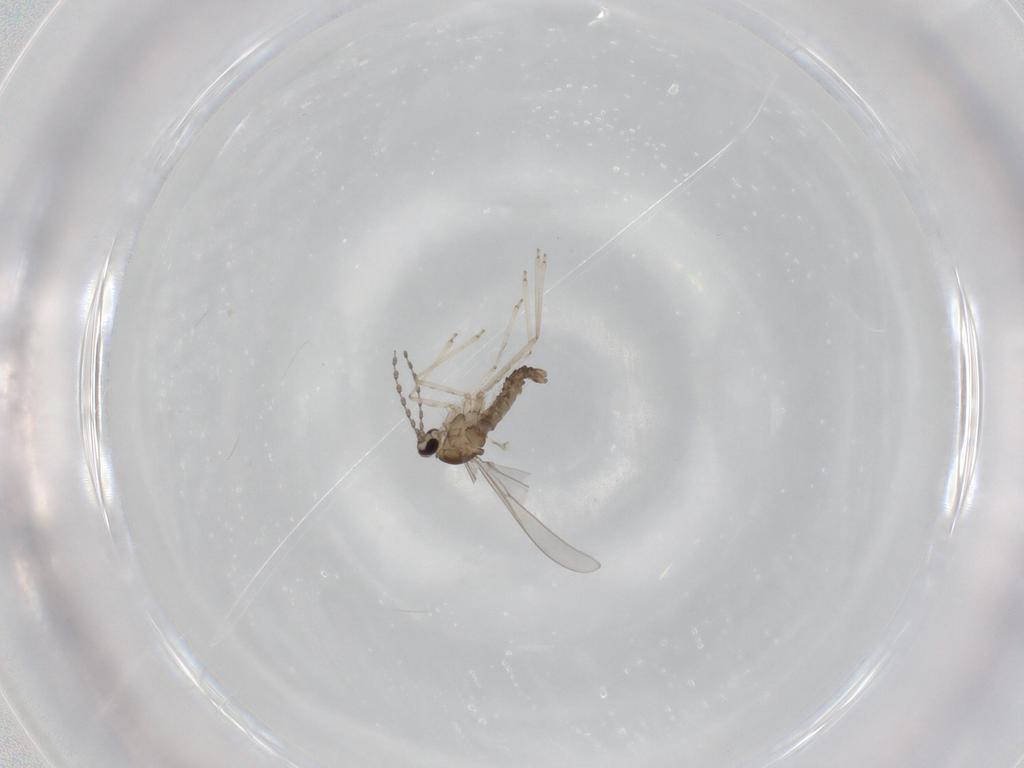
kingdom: Animalia
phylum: Arthropoda
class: Insecta
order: Diptera
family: Cecidomyiidae
